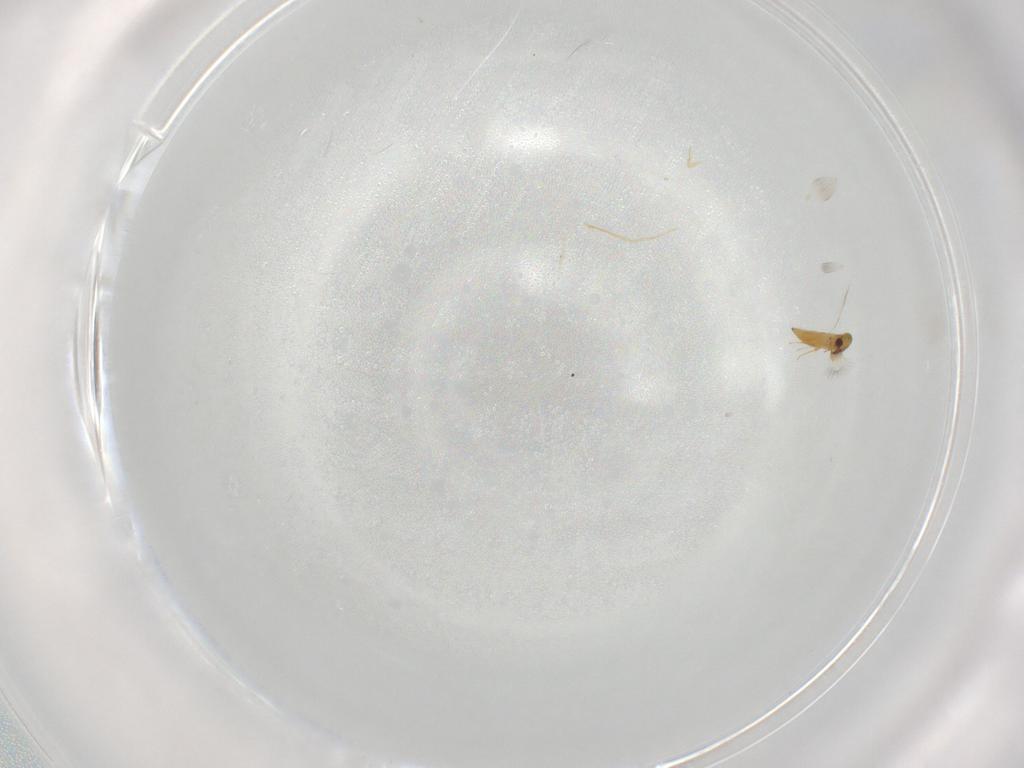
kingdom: Animalia
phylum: Arthropoda
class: Insecta
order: Hymenoptera
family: Signiphoridae
